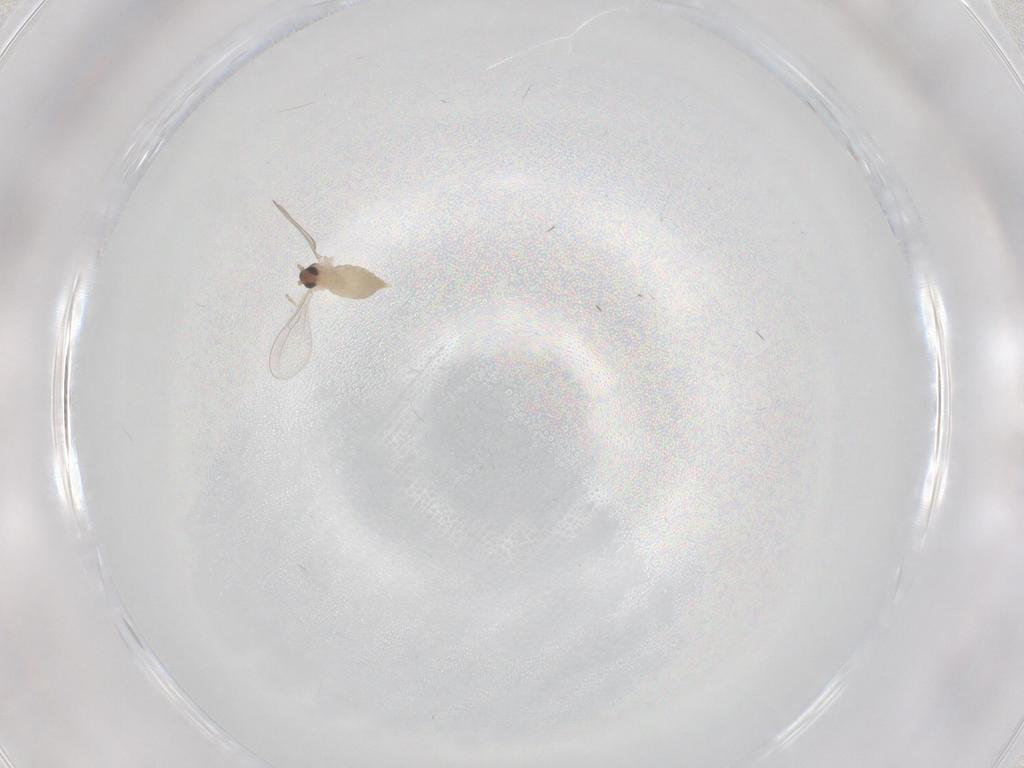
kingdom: Animalia
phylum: Arthropoda
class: Insecta
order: Diptera
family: Cecidomyiidae
